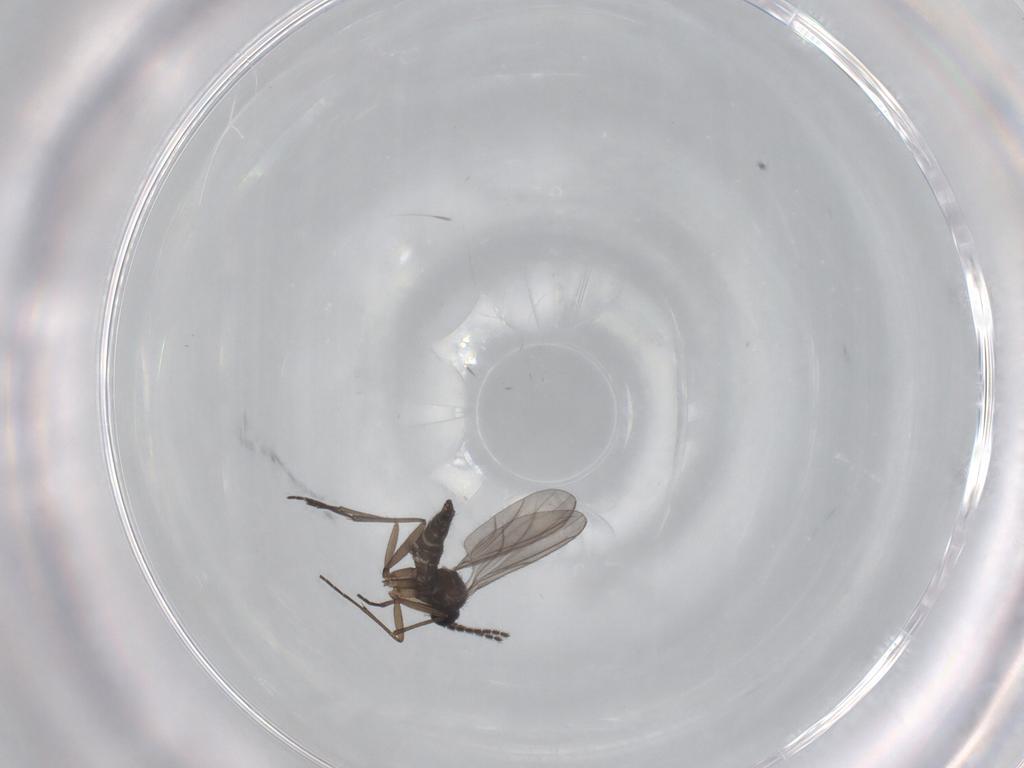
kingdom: Animalia
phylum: Arthropoda
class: Insecta
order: Diptera
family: Sciaridae
